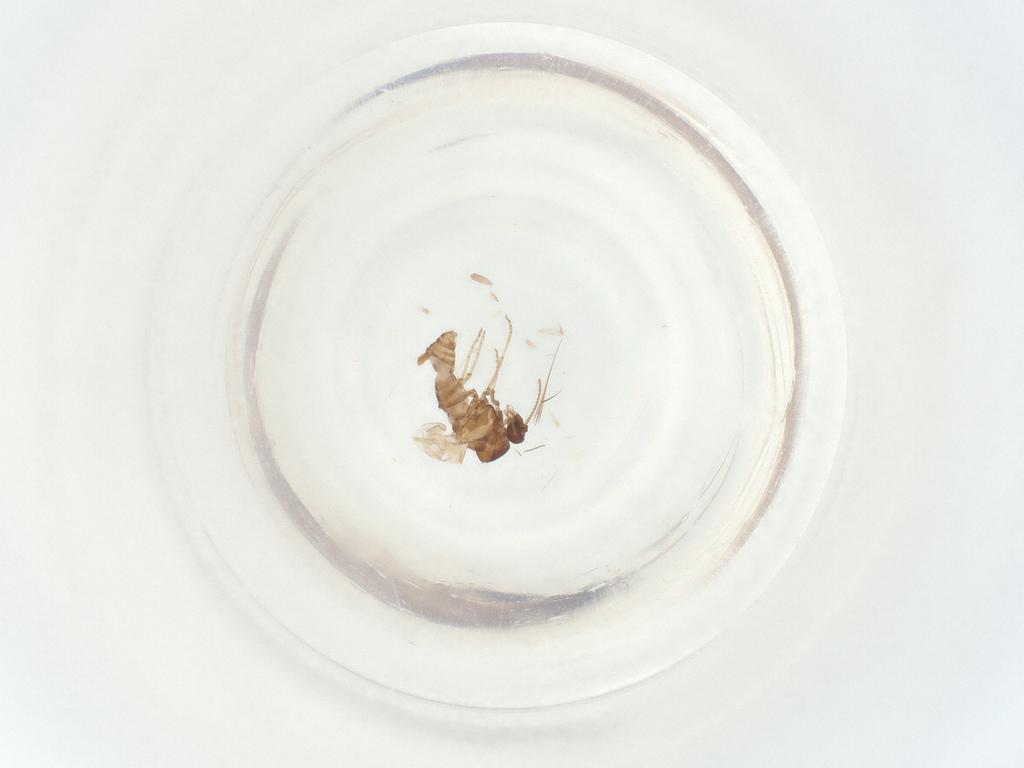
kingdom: Animalia
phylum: Arthropoda
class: Insecta
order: Diptera
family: Ceratopogonidae
